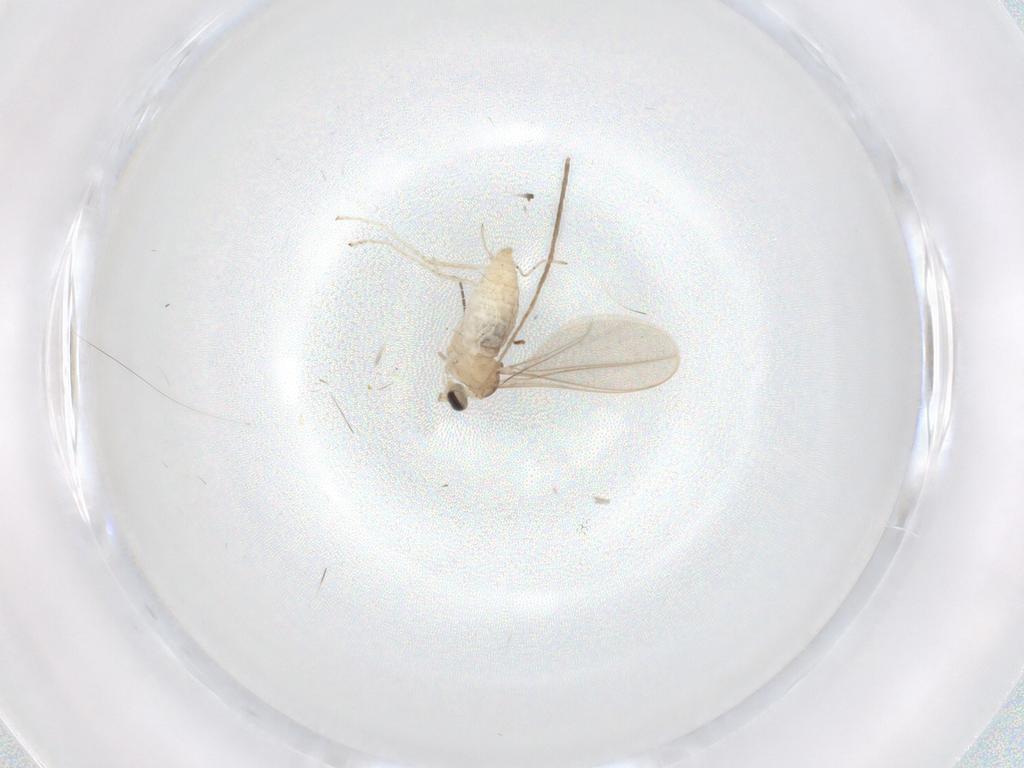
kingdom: Animalia
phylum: Arthropoda
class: Insecta
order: Diptera
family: Cecidomyiidae
